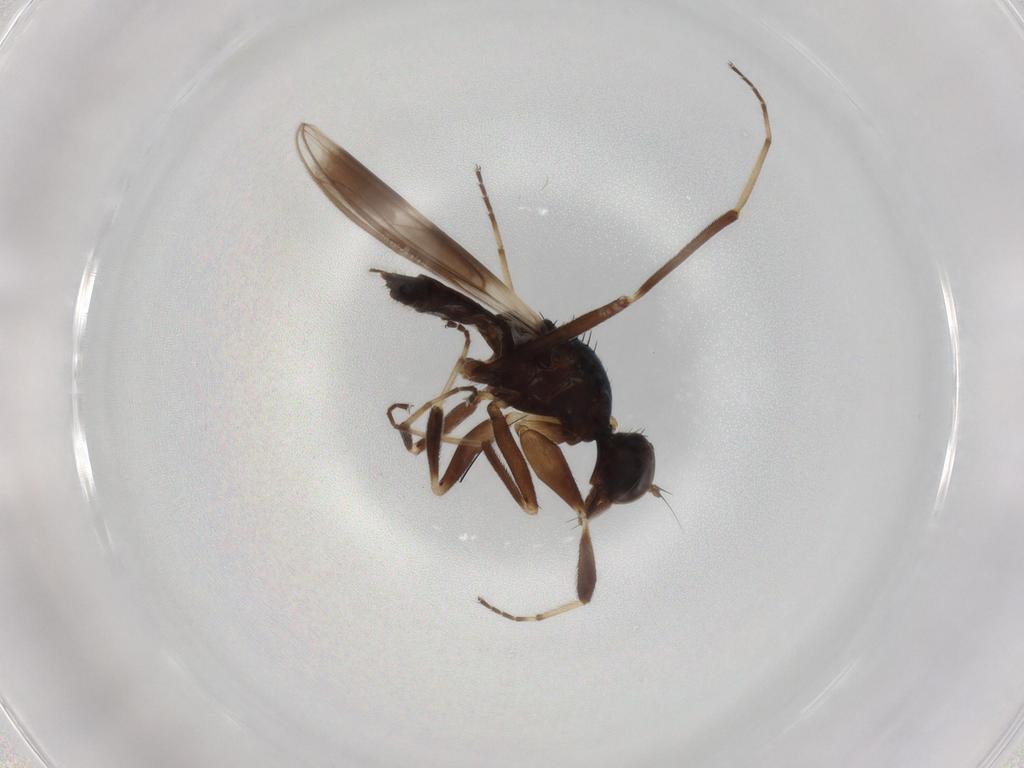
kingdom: Animalia
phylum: Arthropoda
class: Insecta
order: Diptera
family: Hybotidae
